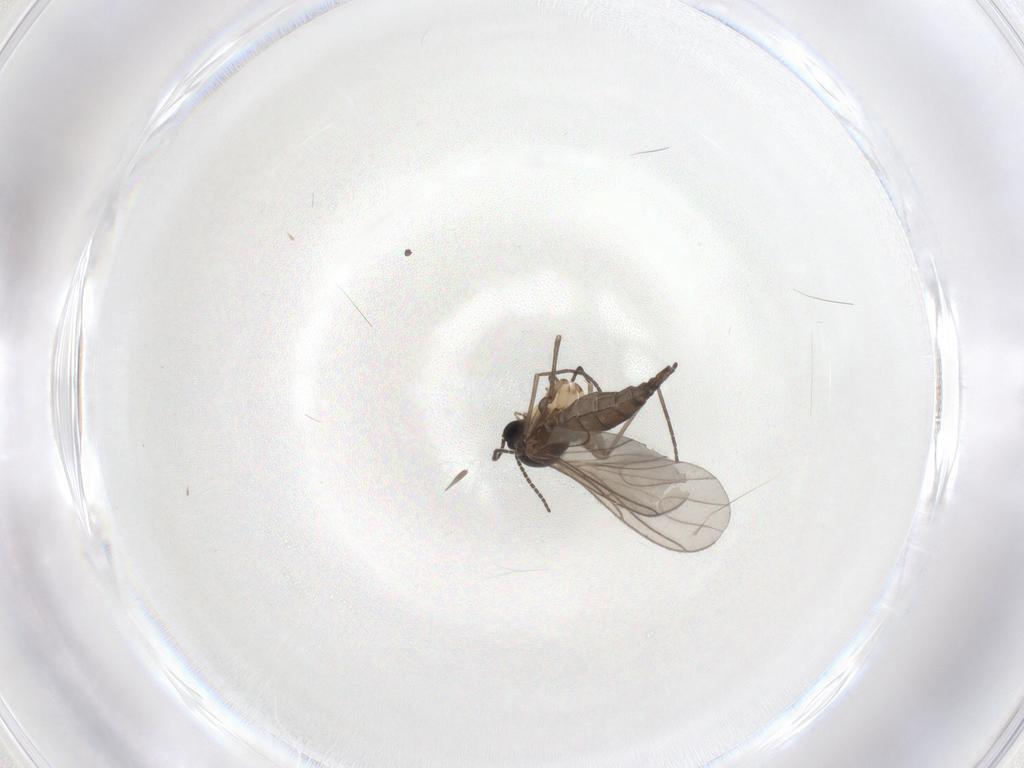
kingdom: Animalia
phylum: Arthropoda
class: Insecta
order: Diptera
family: Sciaridae
